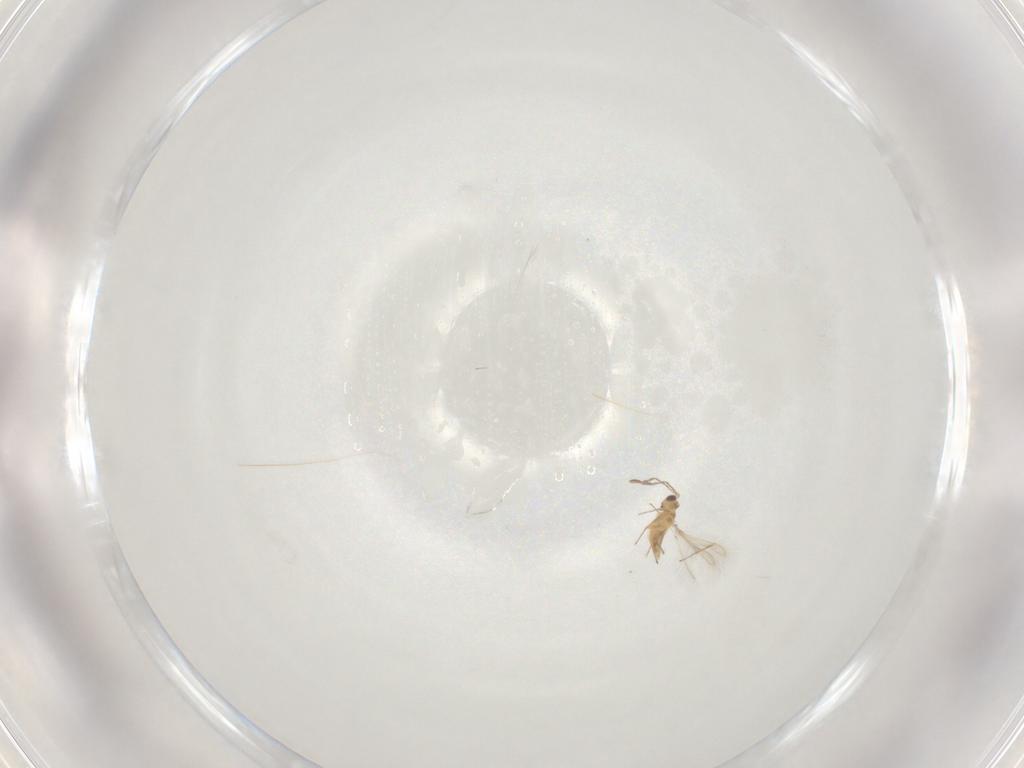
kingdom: Animalia
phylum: Arthropoda
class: Insecta
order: Hymenoptera
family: Mymaridae
